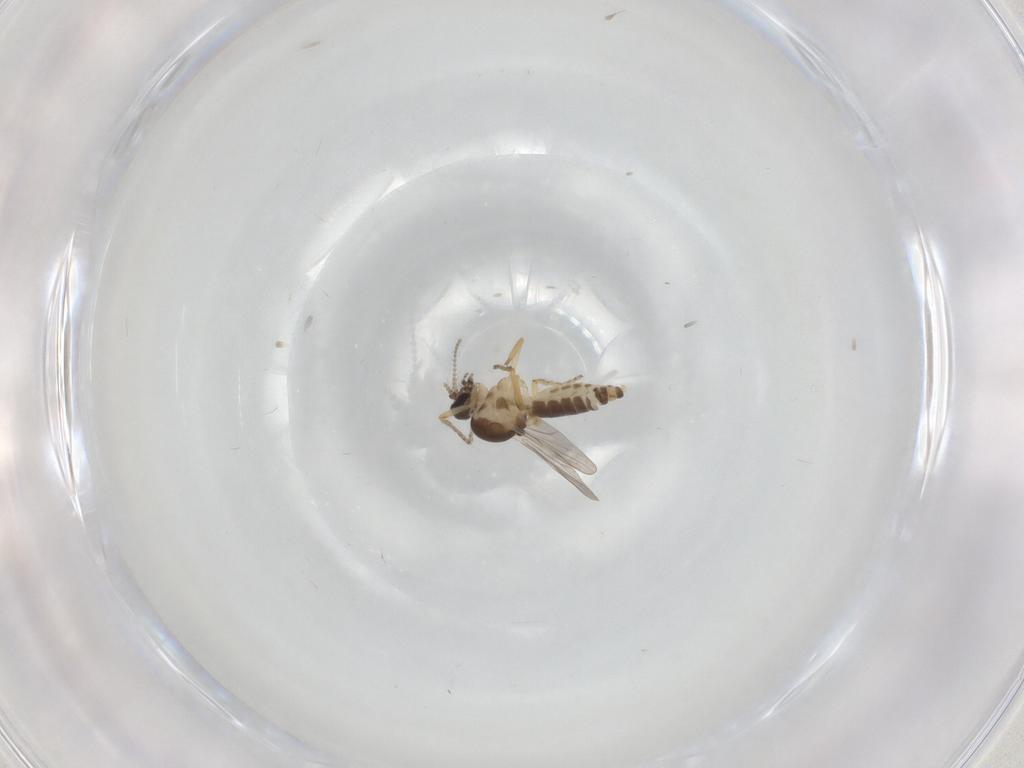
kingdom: Animalia
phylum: Arthropoda
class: Insecta
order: Diptera
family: Ceratopogonidae
